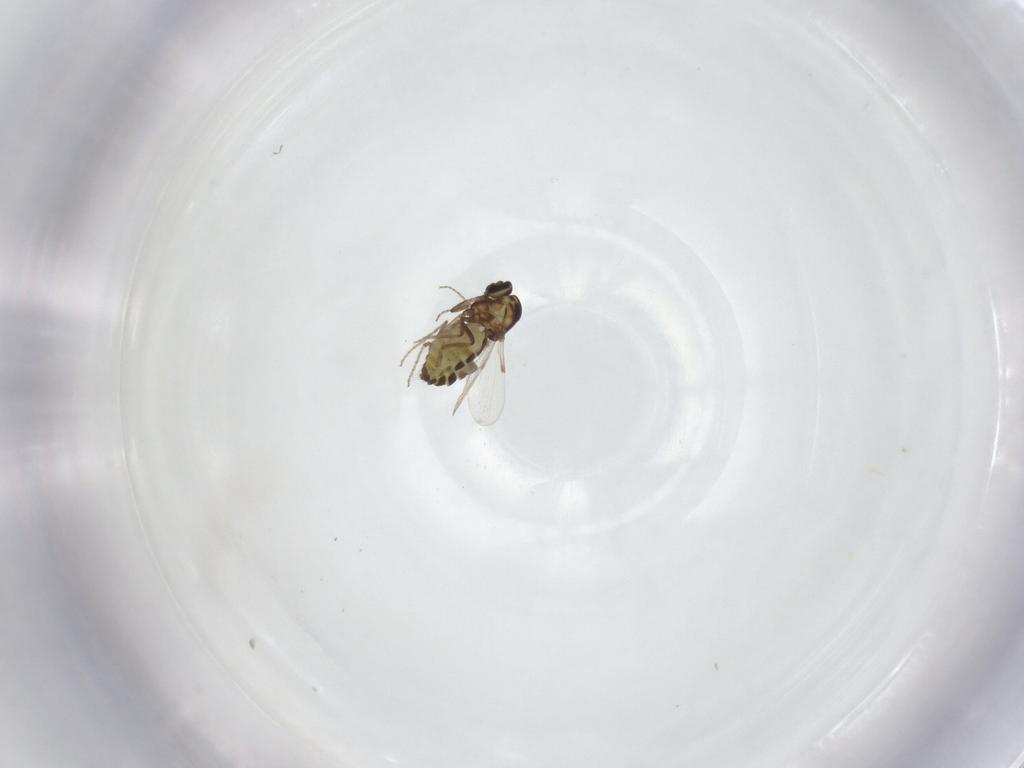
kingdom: Animalia
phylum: Arthropoda
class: Insecta
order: Diptera
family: Ceratopogonidae
